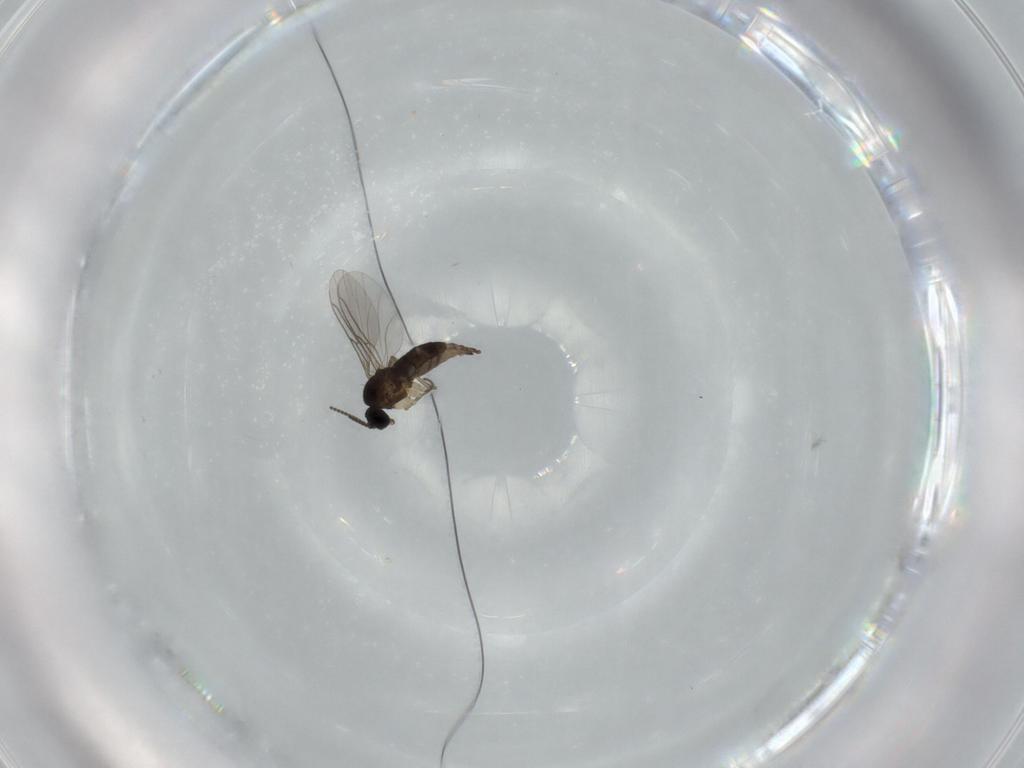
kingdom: Animalia
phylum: Arthropoda
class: Insecta
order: Diptera
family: Sciaridae
